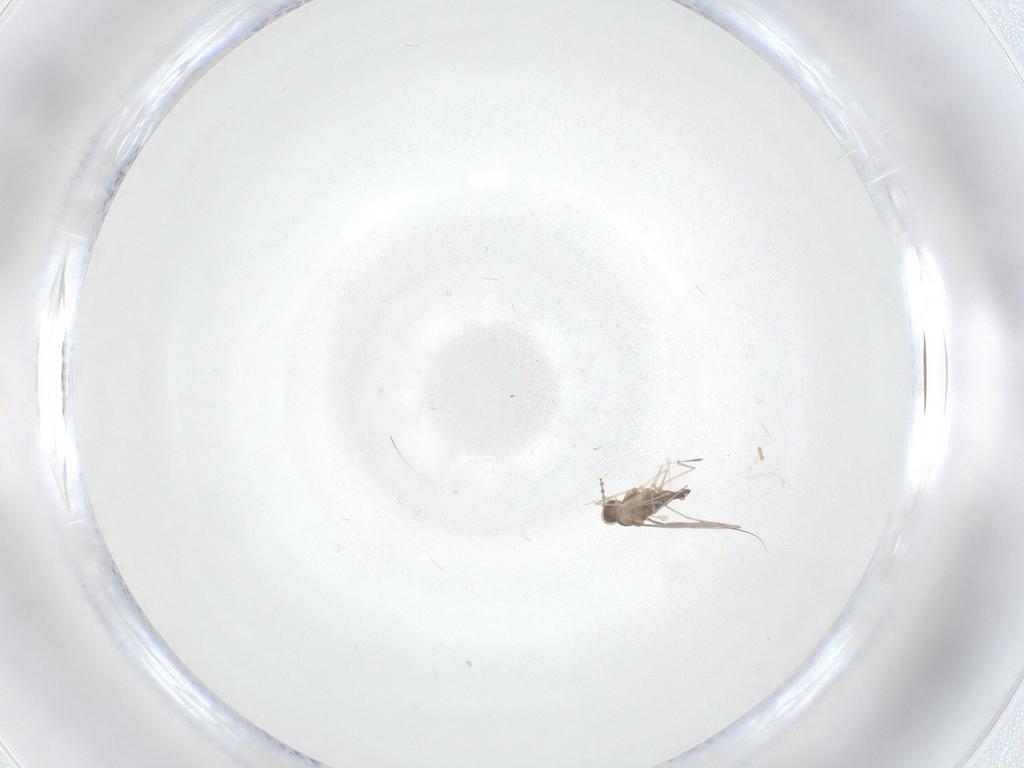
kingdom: Animalia
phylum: Arthropoda
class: Insecta
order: Diptera
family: Cecidomyiidae
